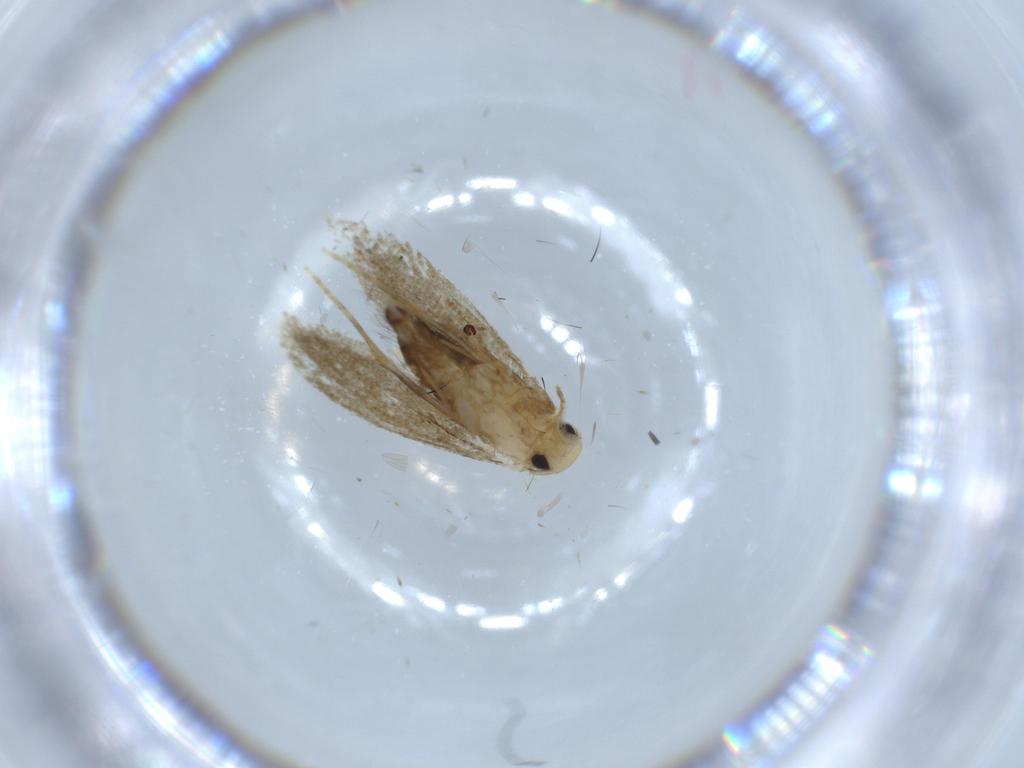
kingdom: Animalia
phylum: Arthropoda
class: Insecta
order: Lepidoptera
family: Tineidae
